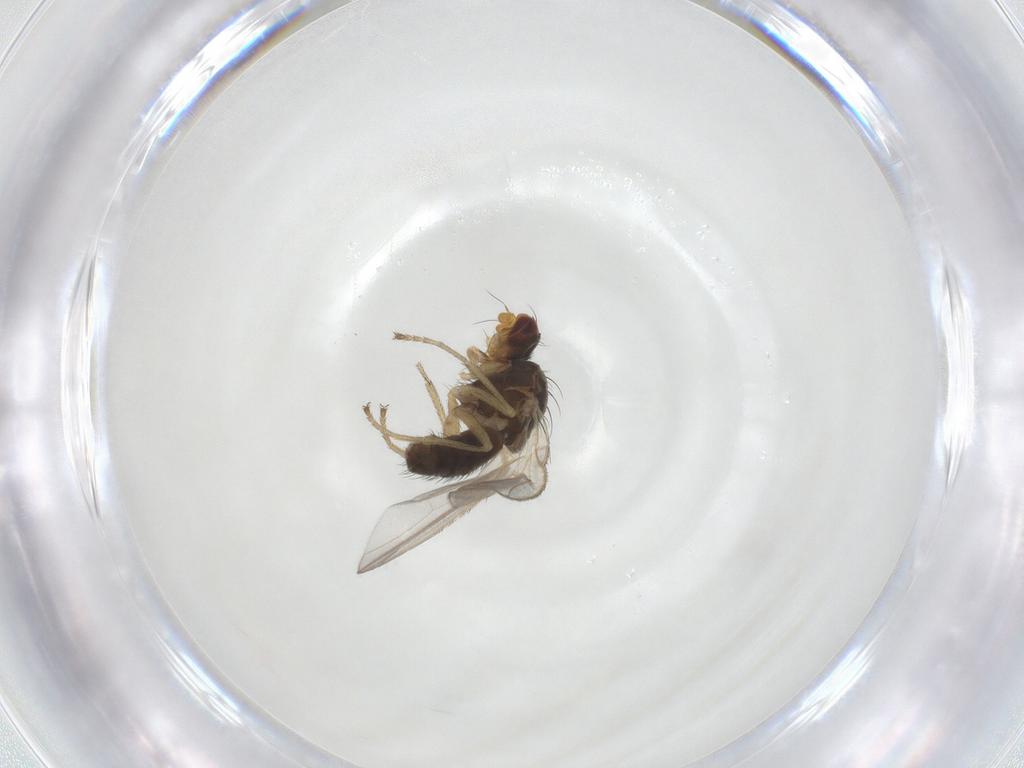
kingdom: Animalia
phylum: Arthropoda
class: Insecta
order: Diptera
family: Heleomyzidae
